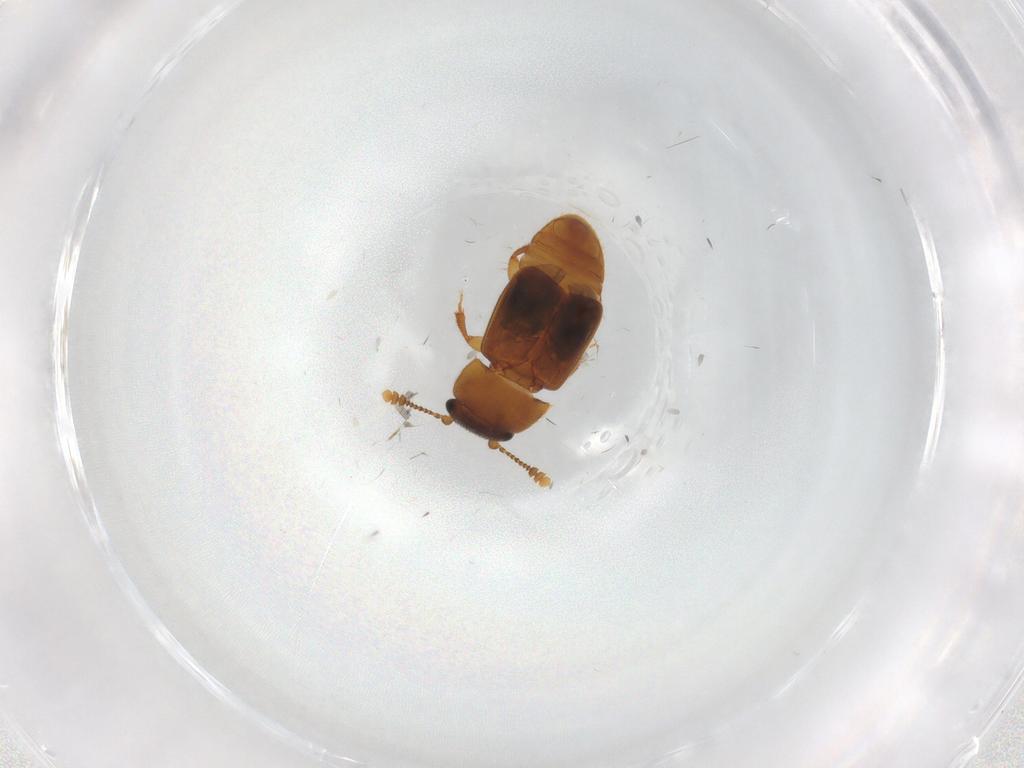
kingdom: Animalia
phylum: Arthropoda
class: Insecta
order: Coleoptera
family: Nitidulidae
